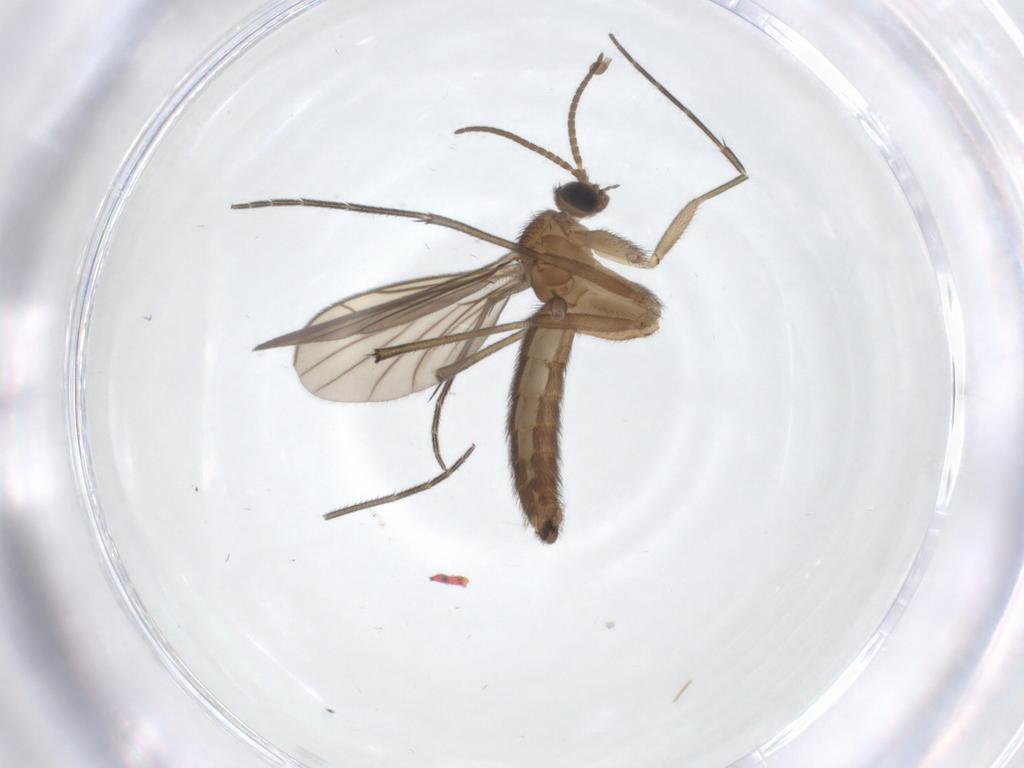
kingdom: Animalia
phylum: Arthropoda
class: Insecta
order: Diptera
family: Keroplatidae
